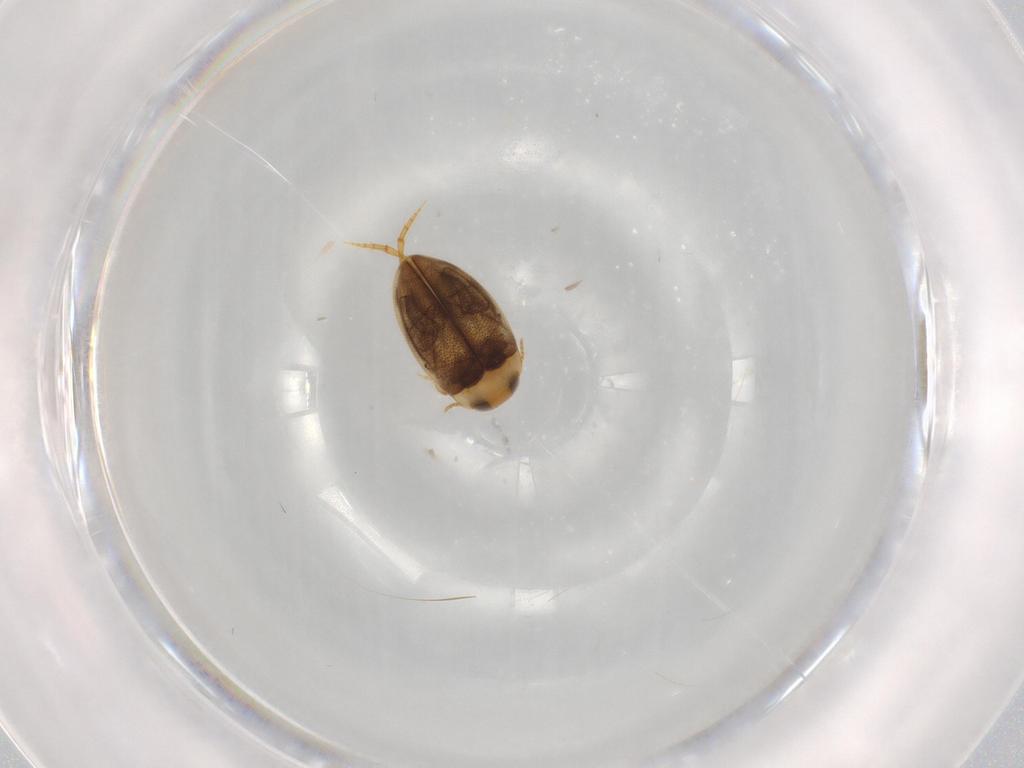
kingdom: Animalia
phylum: Arthropoda
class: Insecta
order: Coleoptera
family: Dytiscidae
